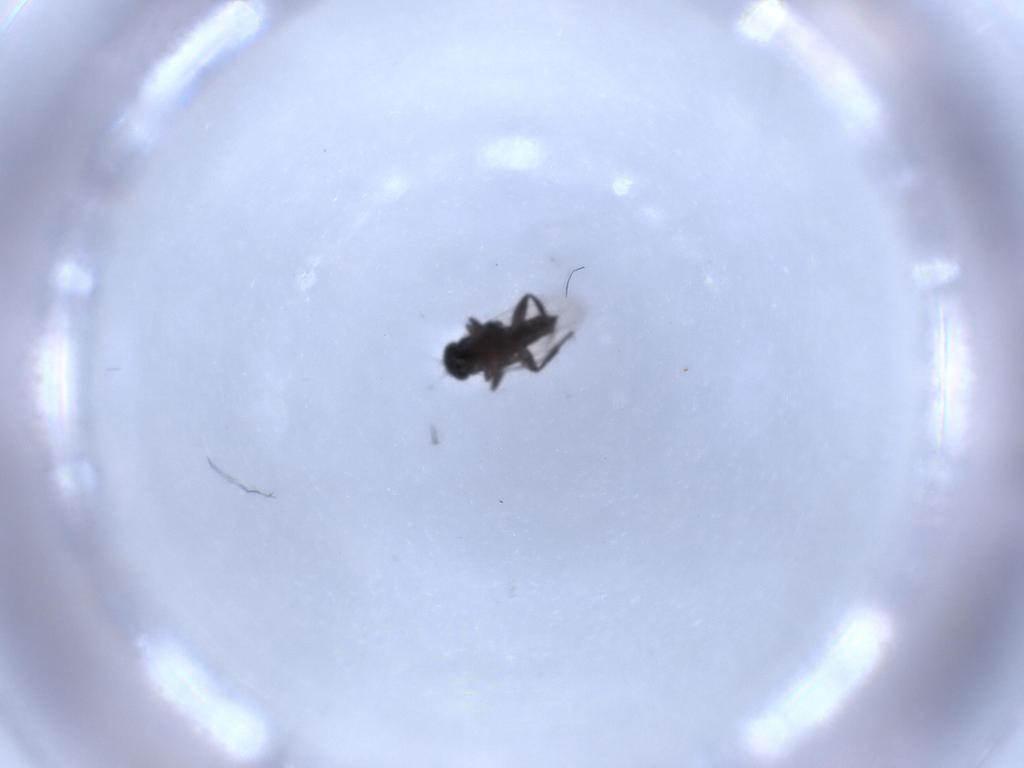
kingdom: Animalia
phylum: Arthropoda
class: Insecta
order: Diptera
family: Phoridae
